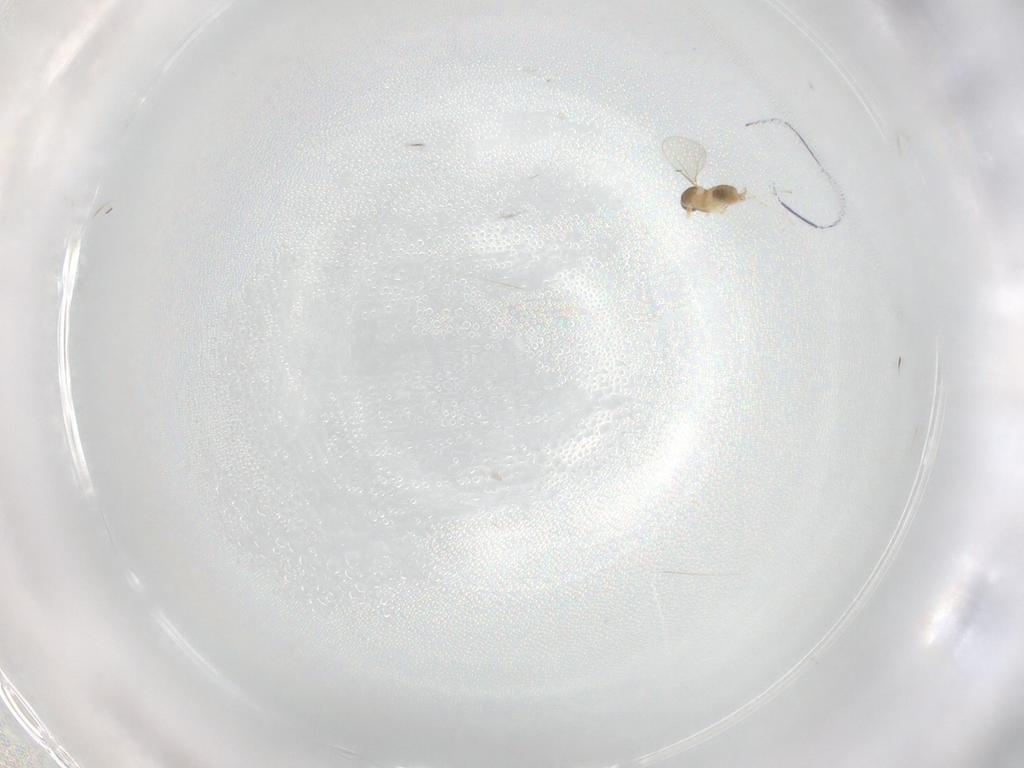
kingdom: Animalia
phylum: Arthropoda
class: Insecta
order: Diptera
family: Cecidomyiidae
